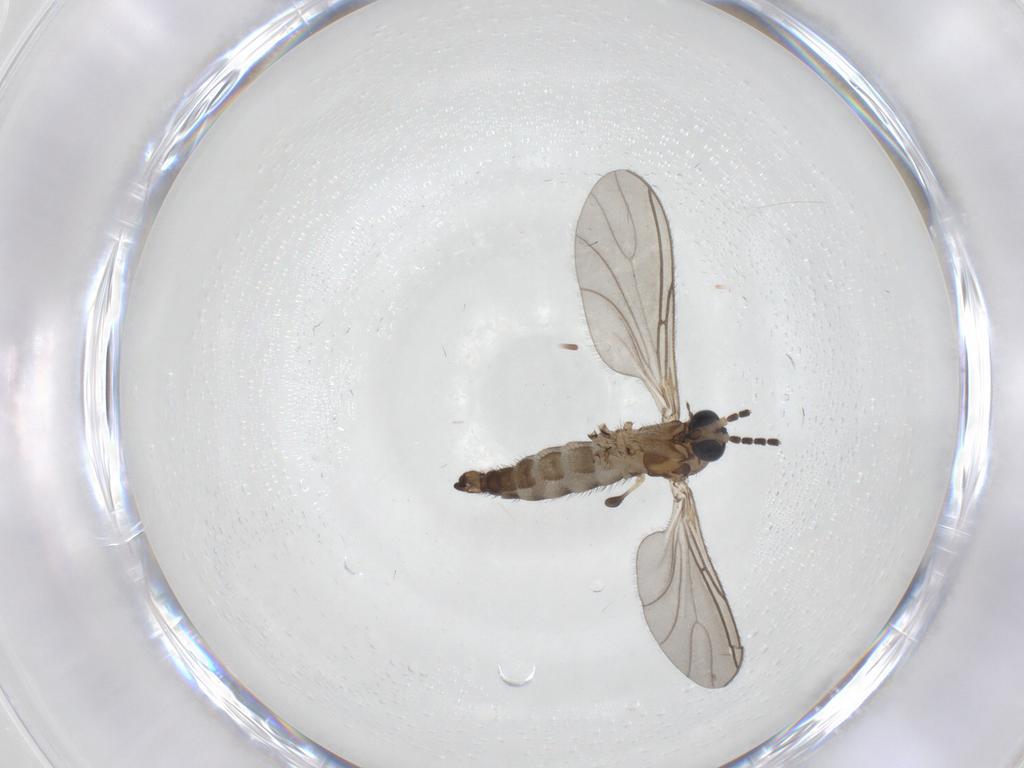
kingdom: Animalia
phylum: Arthropoda
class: Insecta
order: Diptera
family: Sciaridae
